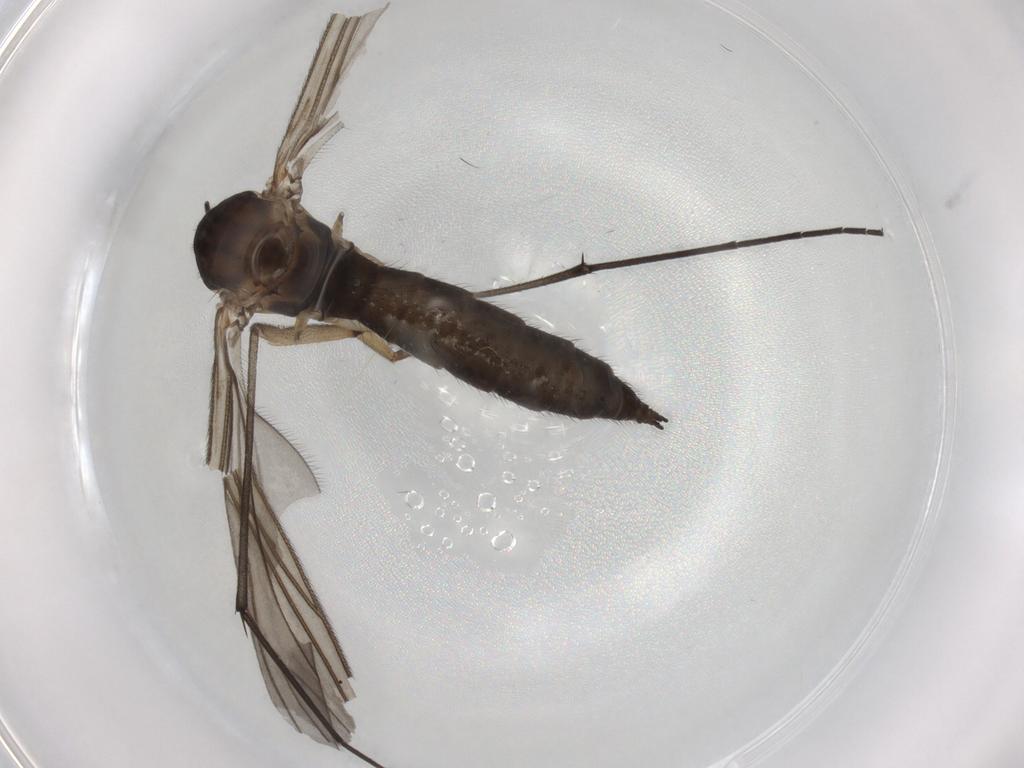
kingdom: Animalia
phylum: Arthropoda
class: Insecta
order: Diptera
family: Sciaridae
